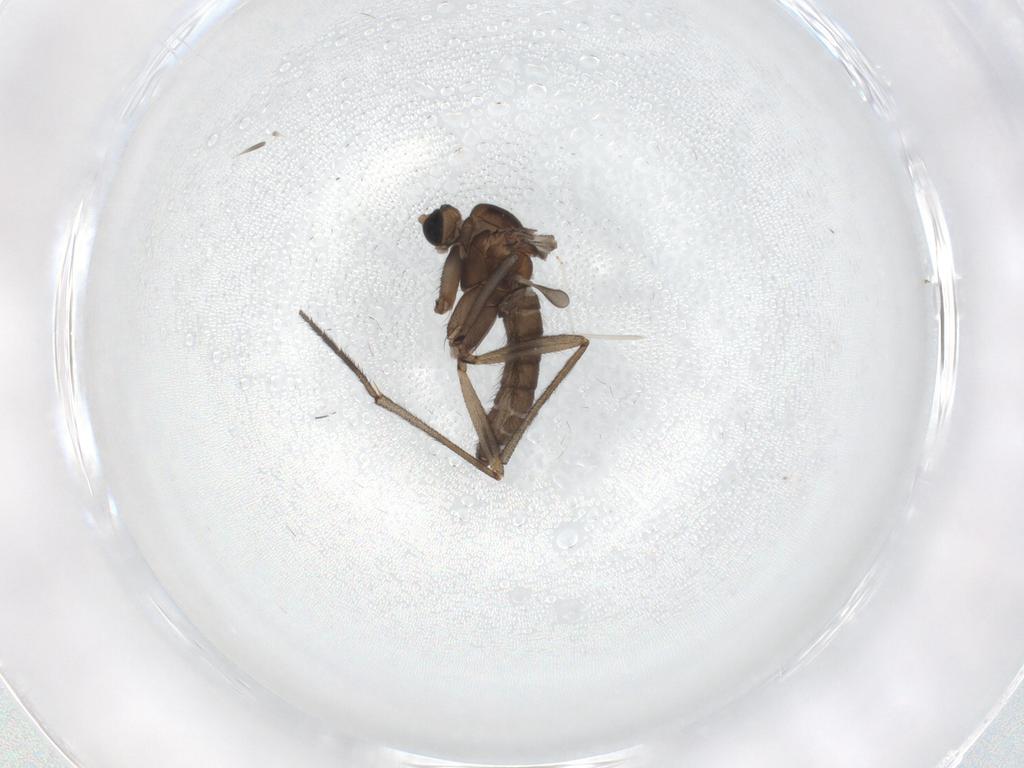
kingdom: Animalia
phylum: Arthropoda
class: Insecta
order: Diptera
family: Sciaridae
